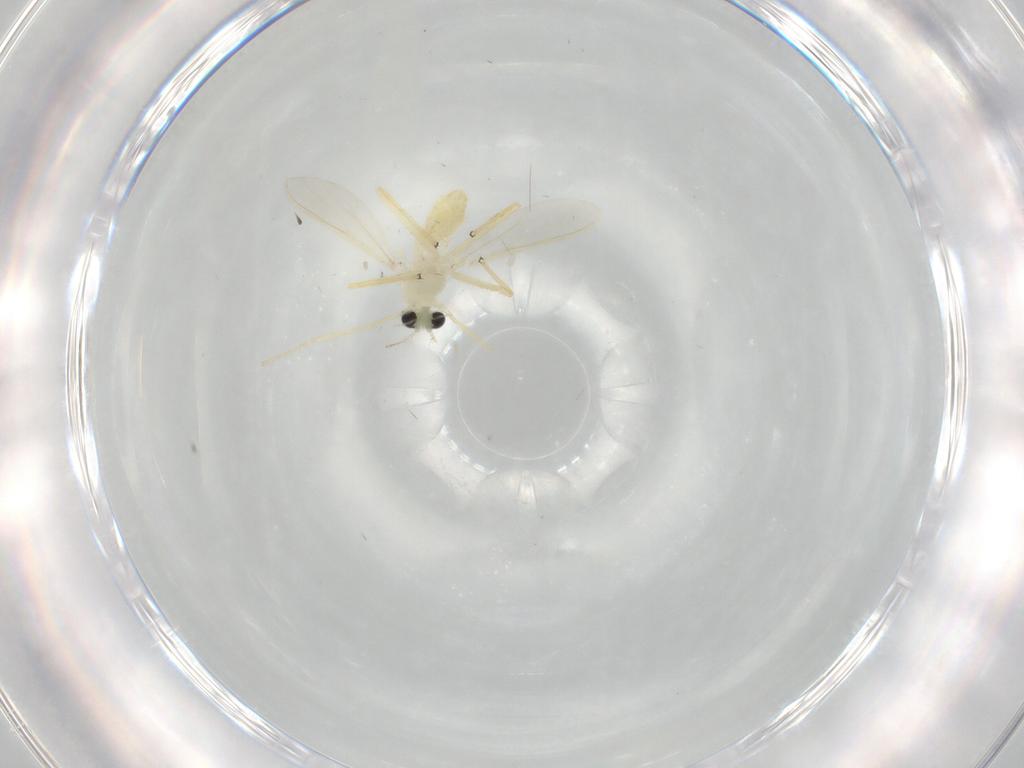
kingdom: Animalia
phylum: Arthropoda
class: Insecta
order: Diptera
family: Chironomidae
